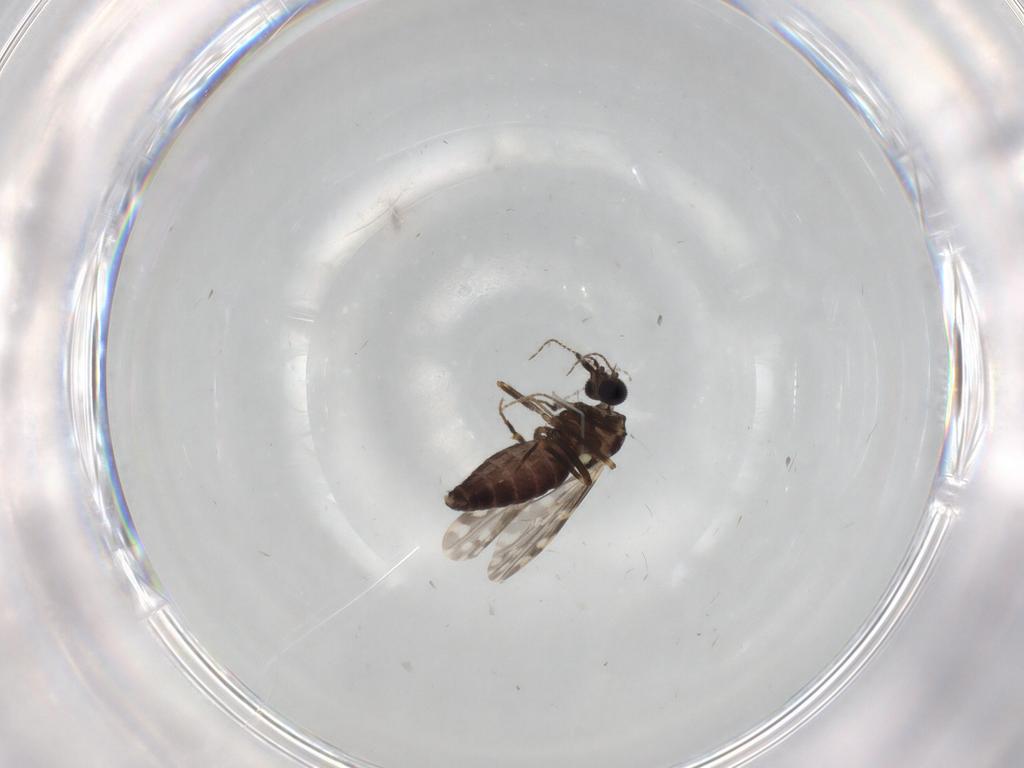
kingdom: Animalia
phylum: Arthropoda
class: Insecta
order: Diptera
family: Ceratopogonidae
